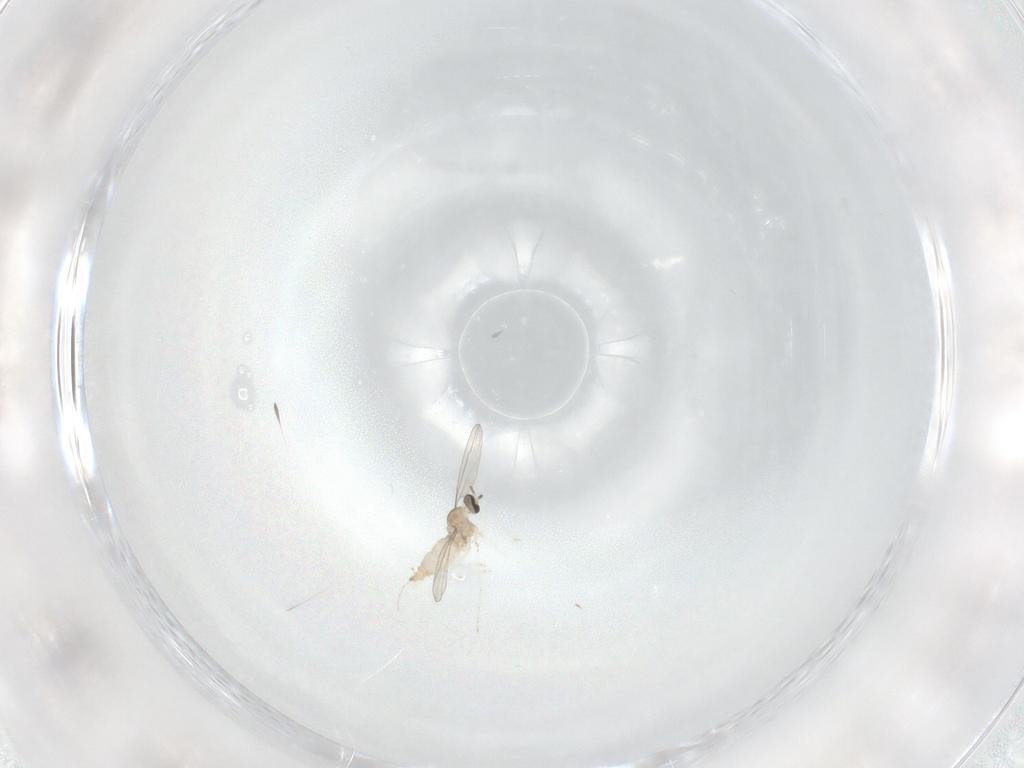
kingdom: Animalia
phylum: Arthropoda
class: Insecta
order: Diptera
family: Cecidomyiidae
